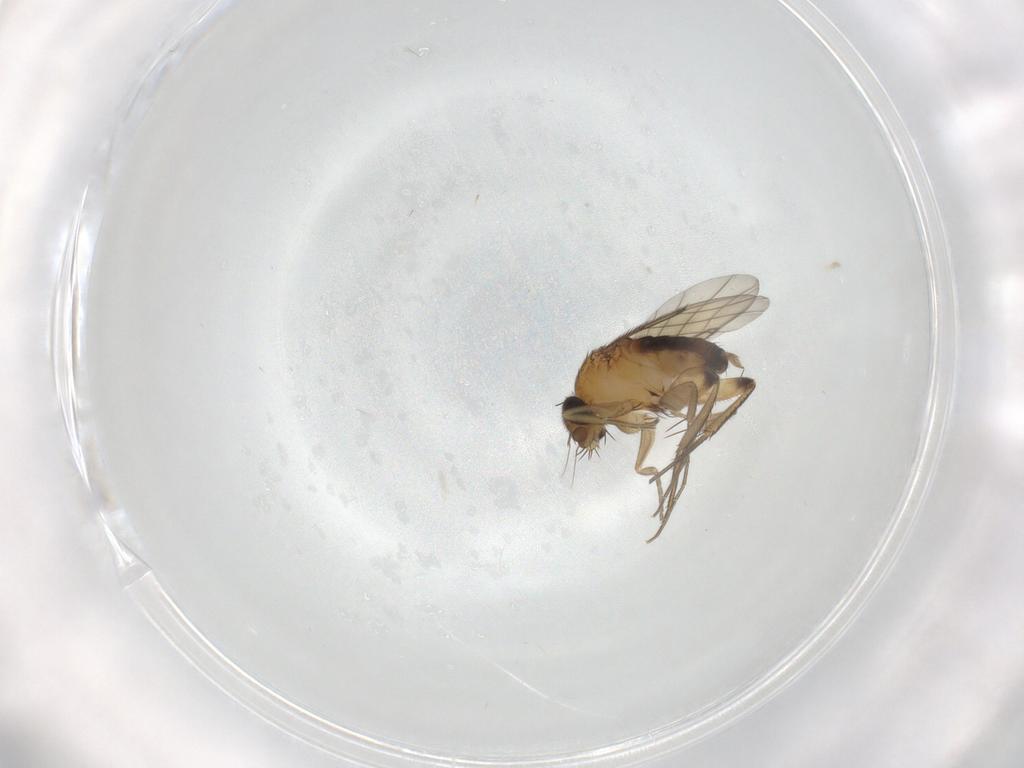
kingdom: Animalia
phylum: Arthropoda
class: Insecta
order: Diptera
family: Phoridae
